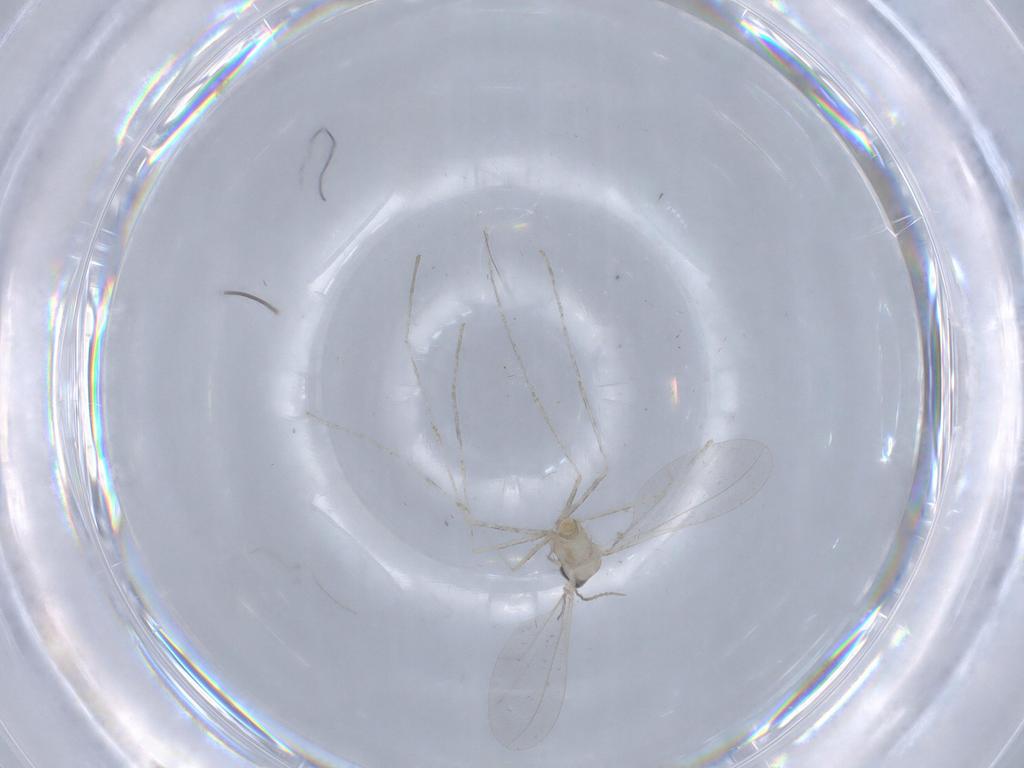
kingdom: Animalia
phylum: Arthropoda
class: Insecta
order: Diptera
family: Cecidomyiidae
